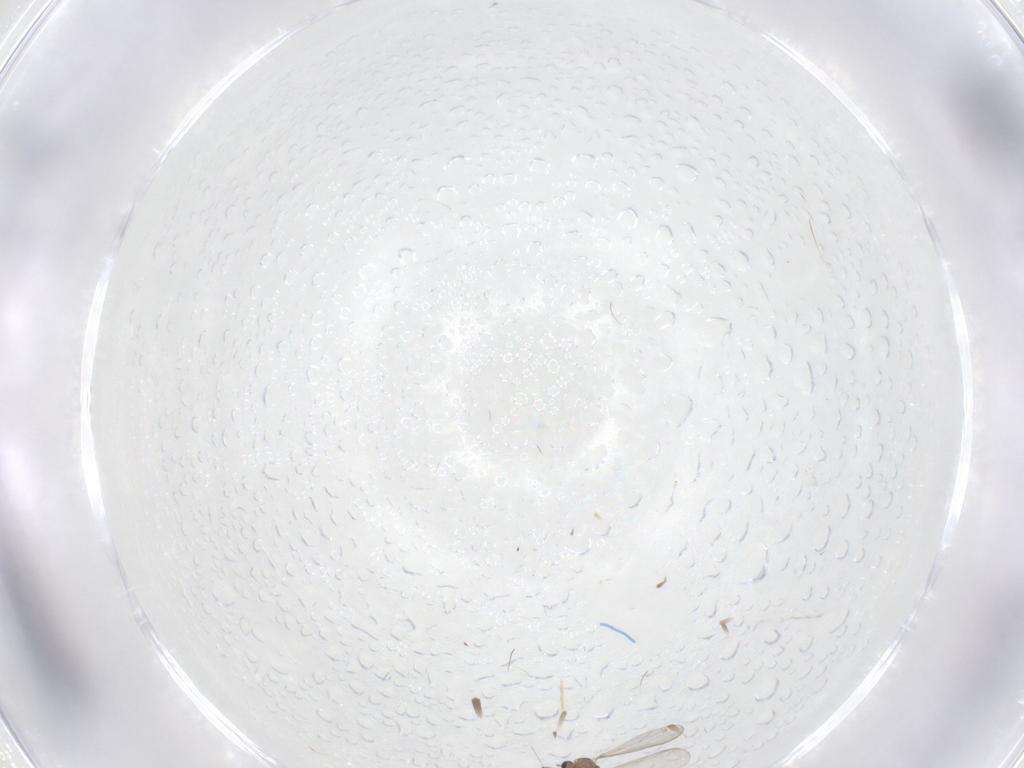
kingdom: Animalia
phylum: Arthropoda
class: Insecta
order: Diptera
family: Chironomidae
